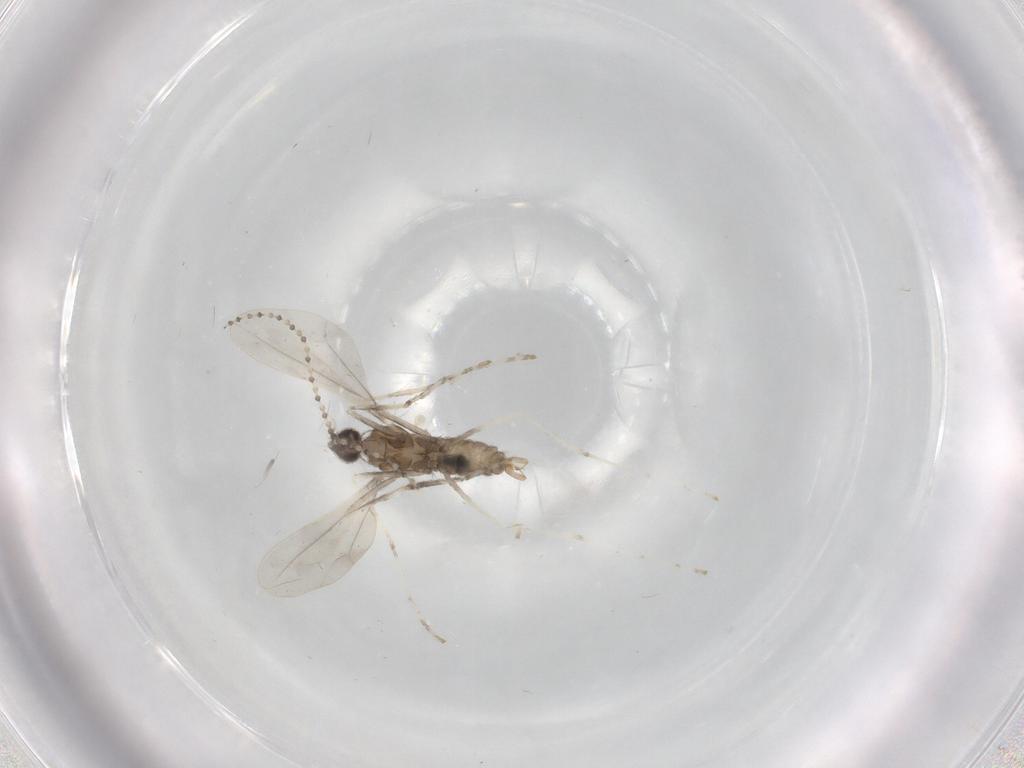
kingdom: Animalia
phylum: Arthropoda
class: Insecta
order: Diptera
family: Cecidomyiidae
